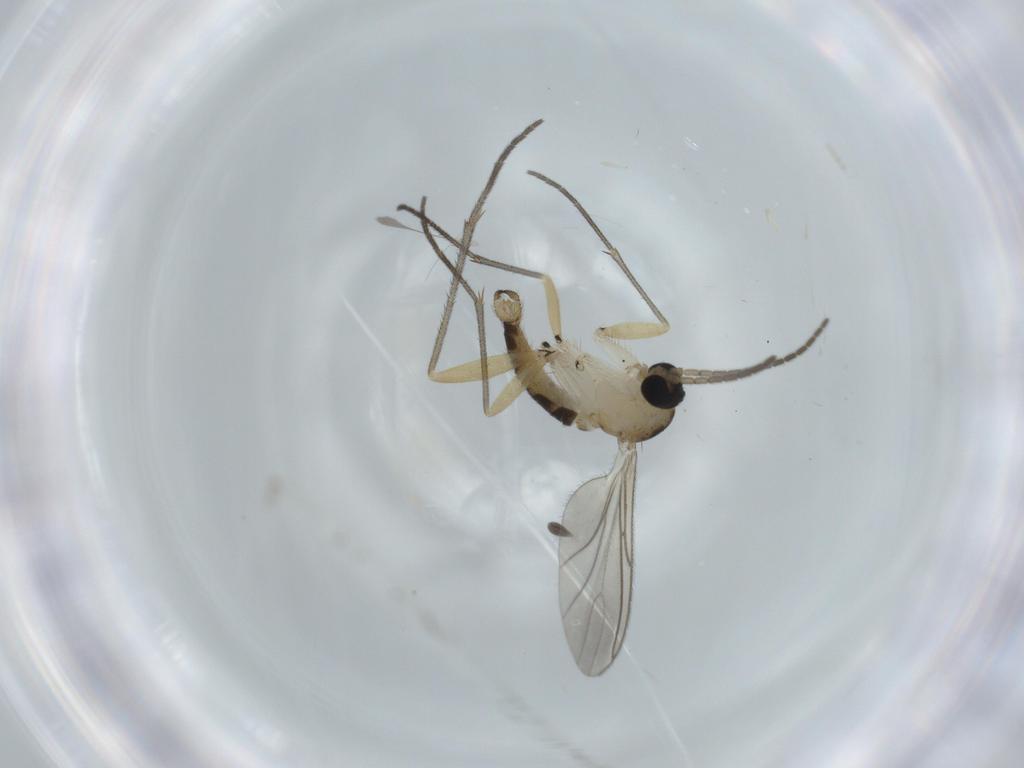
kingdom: Animalia
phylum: Arthropoda
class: Insecta
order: Diptera
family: Sciaridae
